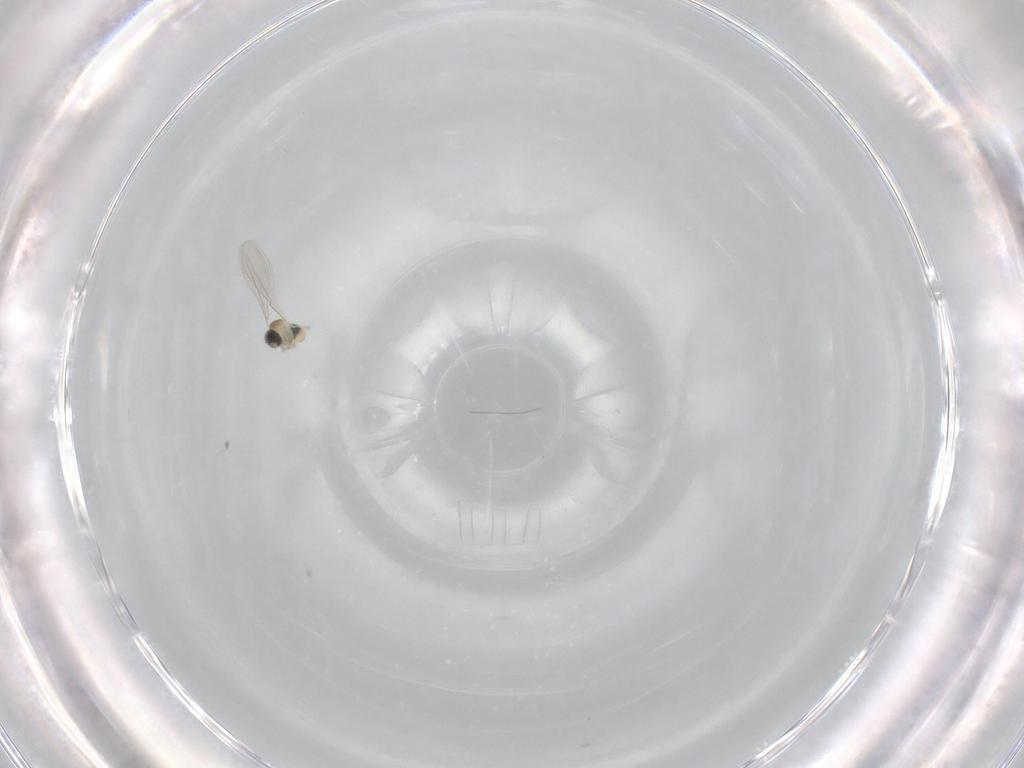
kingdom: Animalia
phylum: Arthropoda
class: Insecta
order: Diptera
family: Cecidomyiidae
